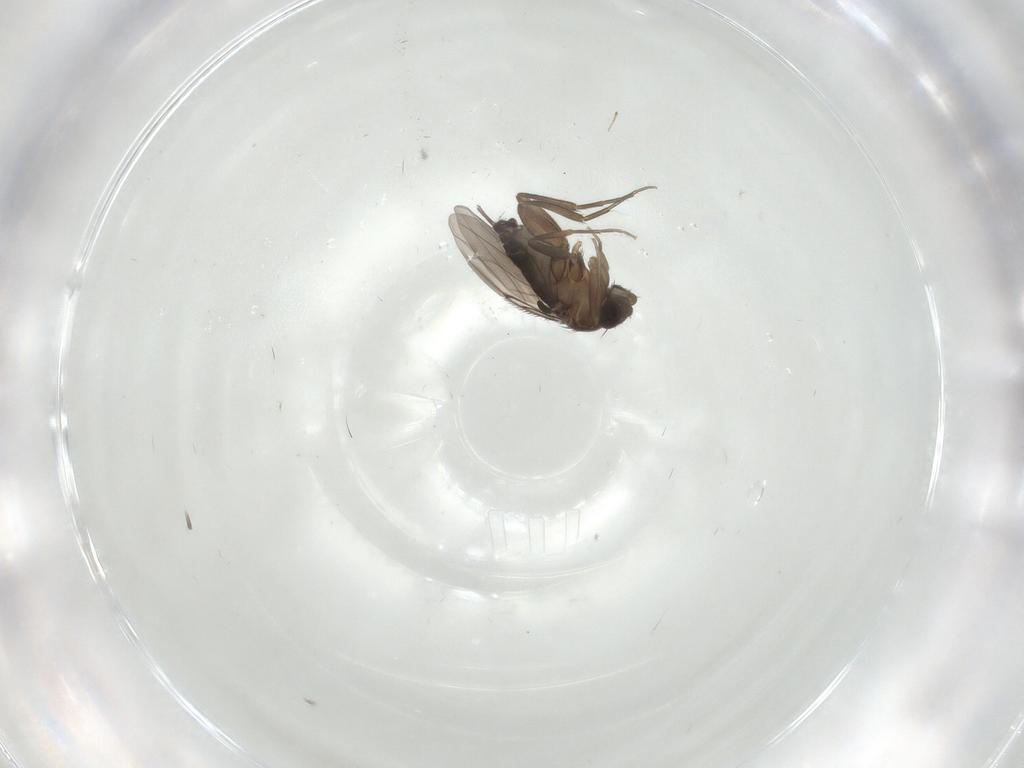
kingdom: Animalia
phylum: Arthropoda
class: Insecta
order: Diptera
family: Phoridae
